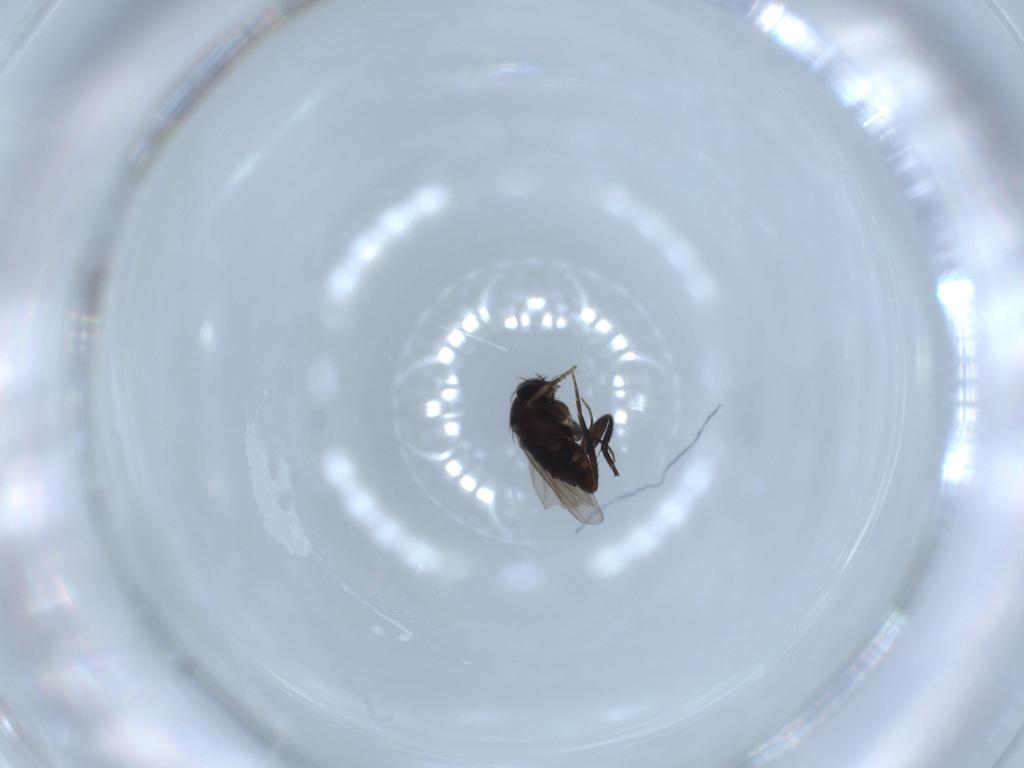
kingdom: Animalia
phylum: Arthropoda
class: Insecta
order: Diptera
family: Phoridae
